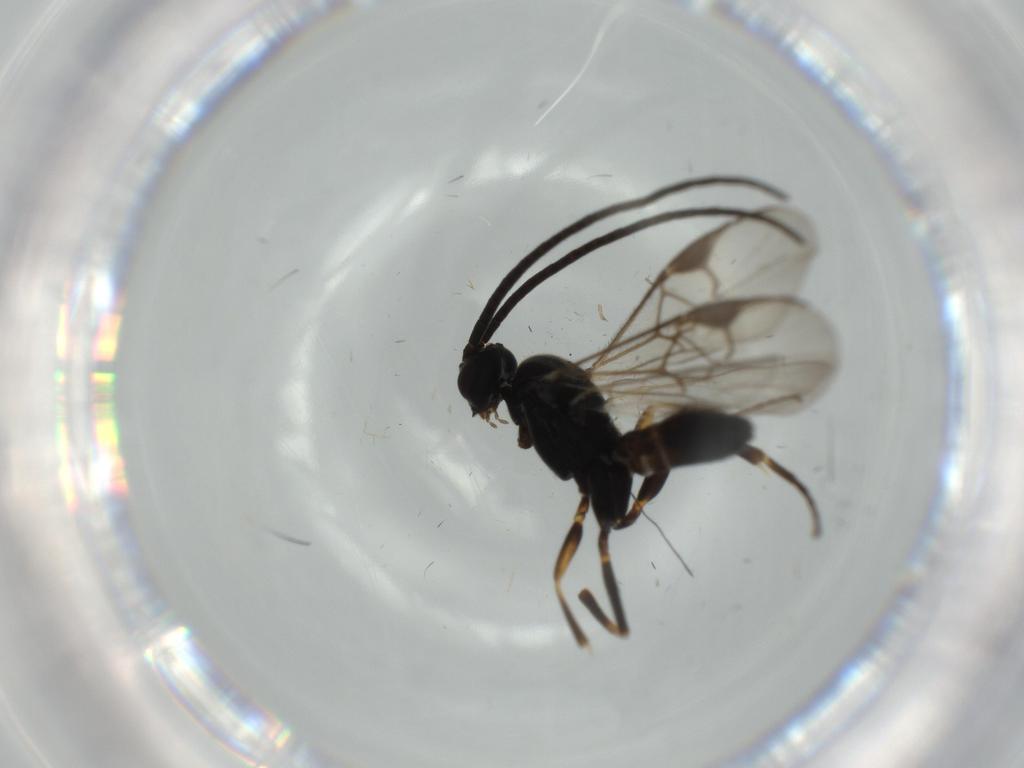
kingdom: Animalia
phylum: Arthropoda
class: Insecta
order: Hymenoptera
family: Braconidae
